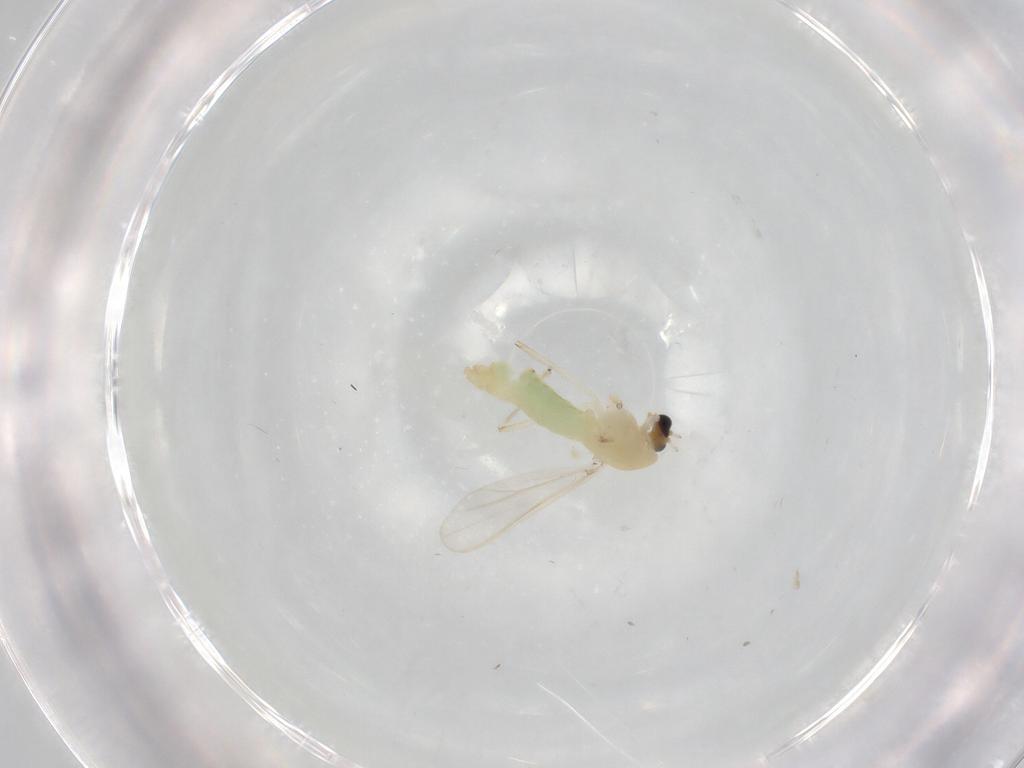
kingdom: Animalia
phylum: Arthropoda
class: Insecta
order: Diptera
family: Chironomidae
